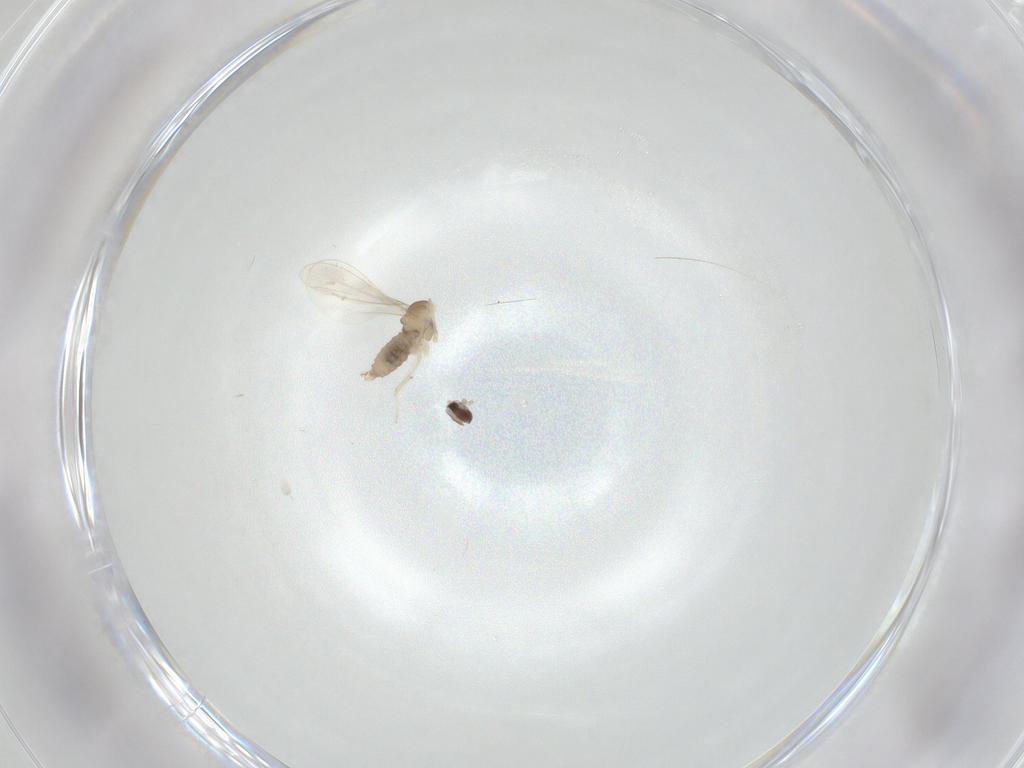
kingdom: Animalia
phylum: Arthropoda
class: Insecta
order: Diptera
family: Cecidomyiidae
